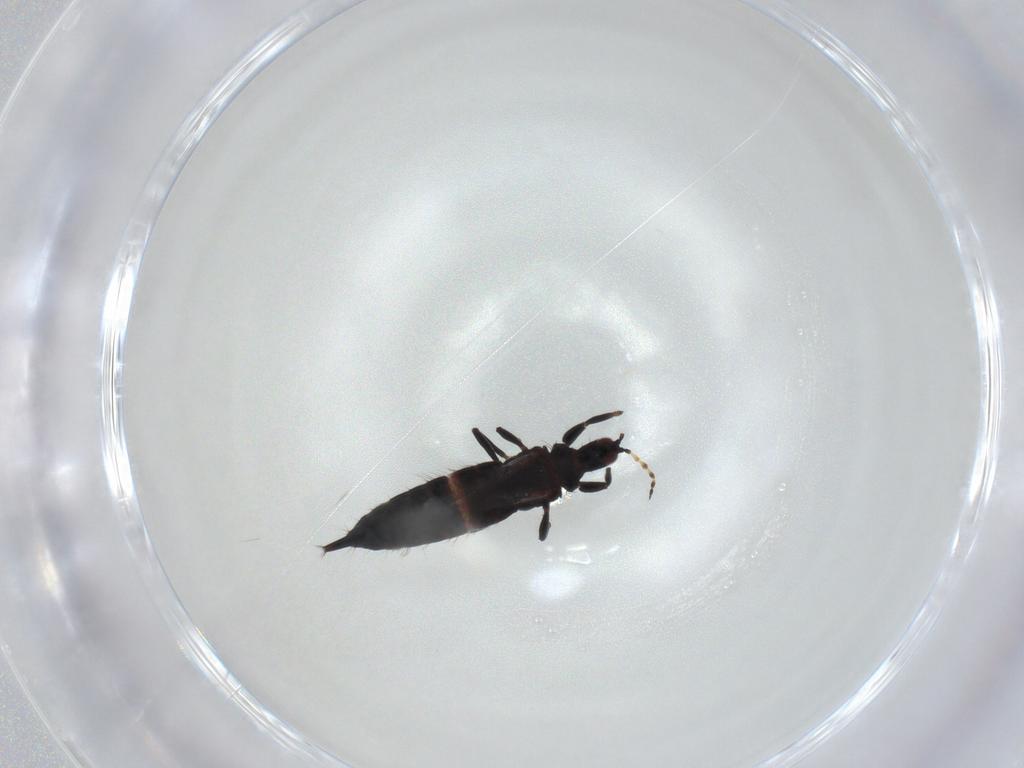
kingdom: Animalia
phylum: Arthropoda
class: Insecta
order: Thysanoptera
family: Phlaeothripidae
